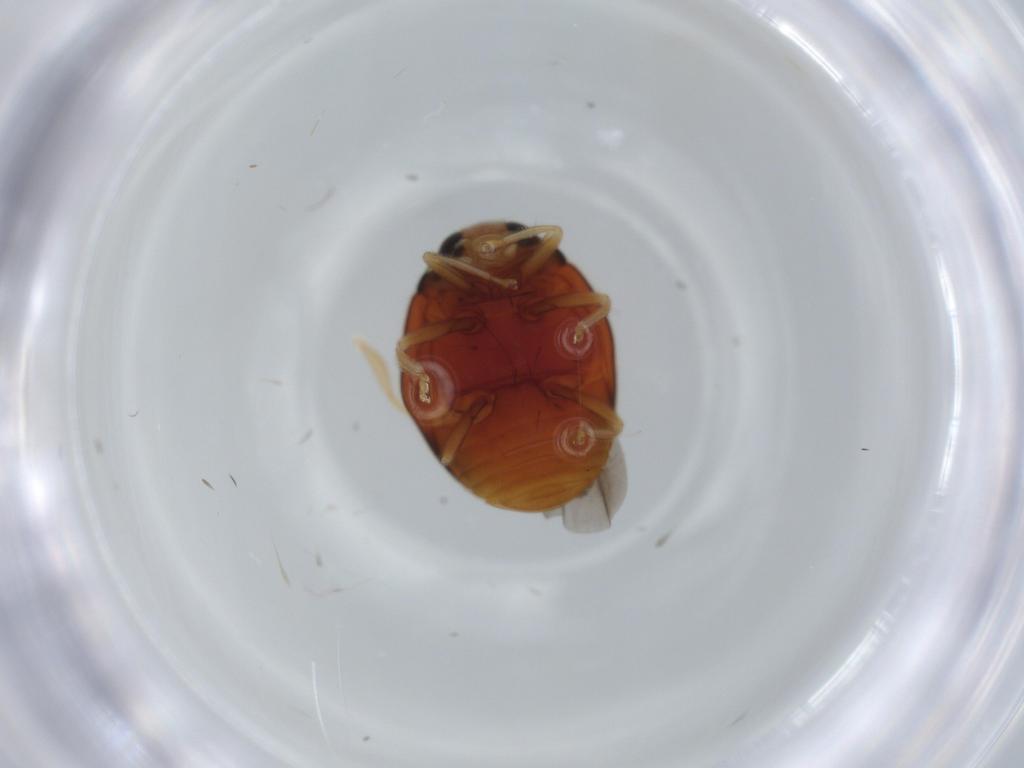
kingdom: Animalia
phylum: Arthropoda
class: Insecta
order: Coleoptera
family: Coccinellidae
